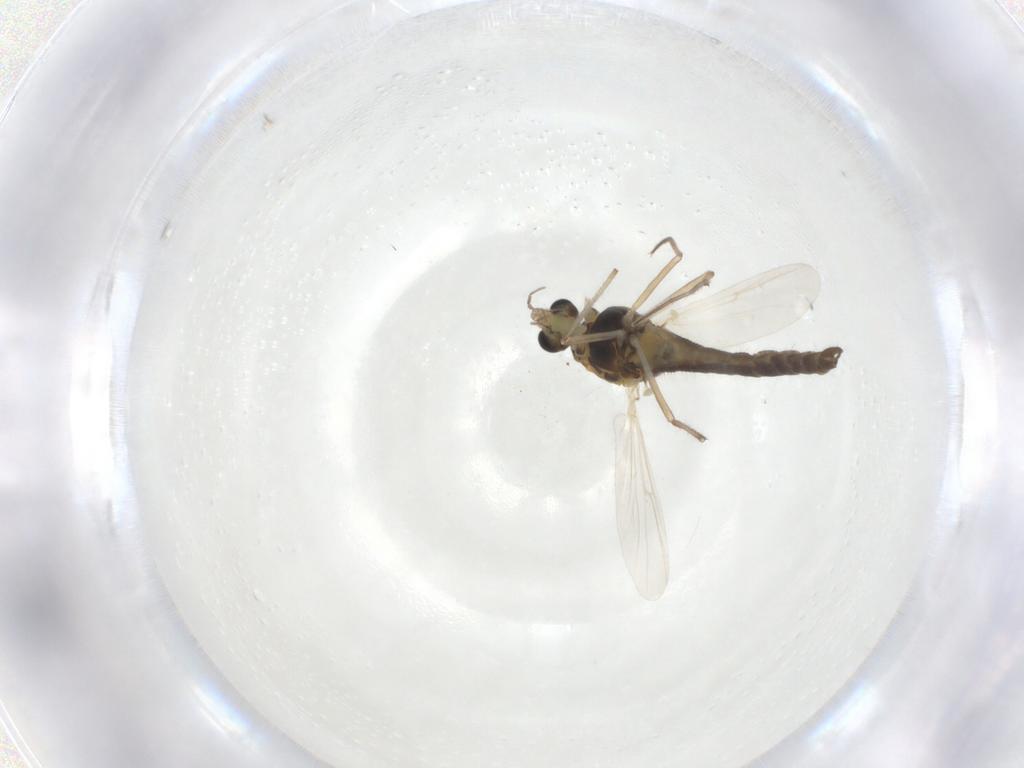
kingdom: Animalia
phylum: Arthropoda
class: Insecta
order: Diptera
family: Chironomidae
